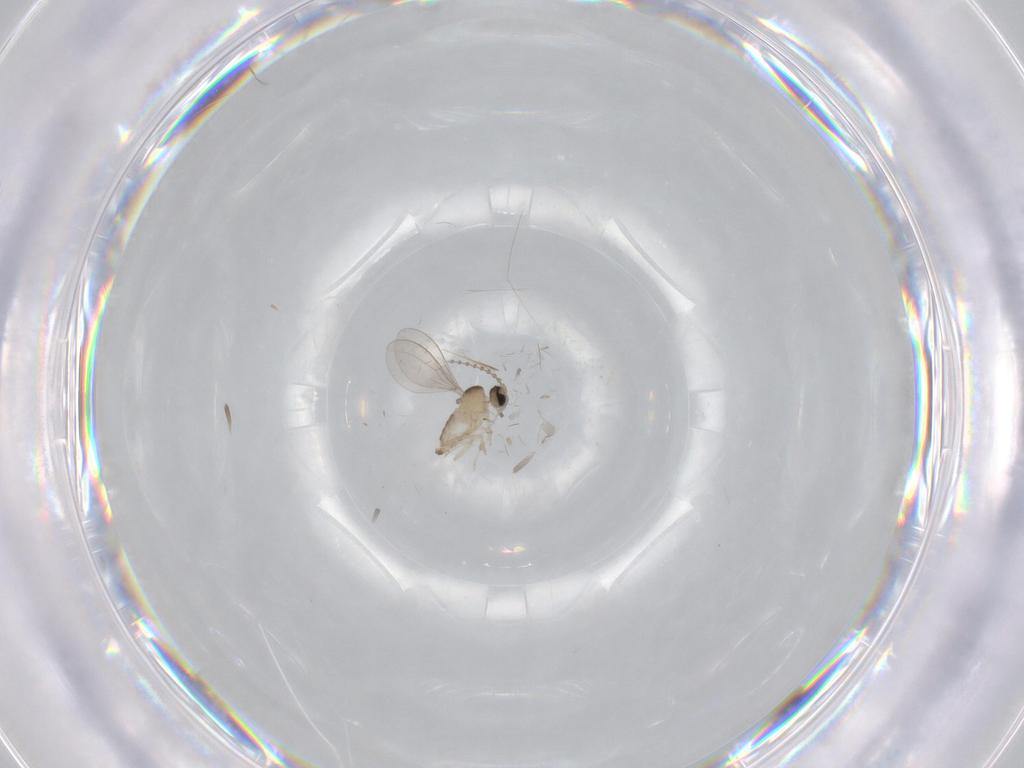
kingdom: Animalia
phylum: Arthropoda
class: Insecta
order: Diptera
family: Cecidomyiidae
